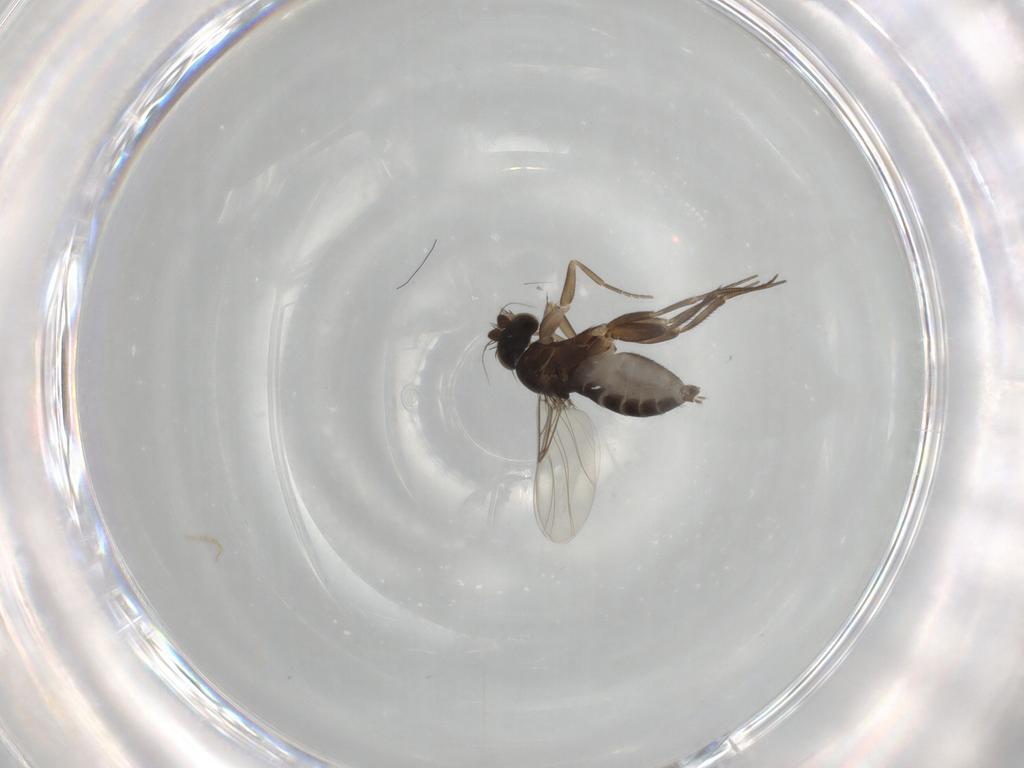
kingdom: Animalia
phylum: Arthropoda
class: Insecta
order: Diptera
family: Phoridae
